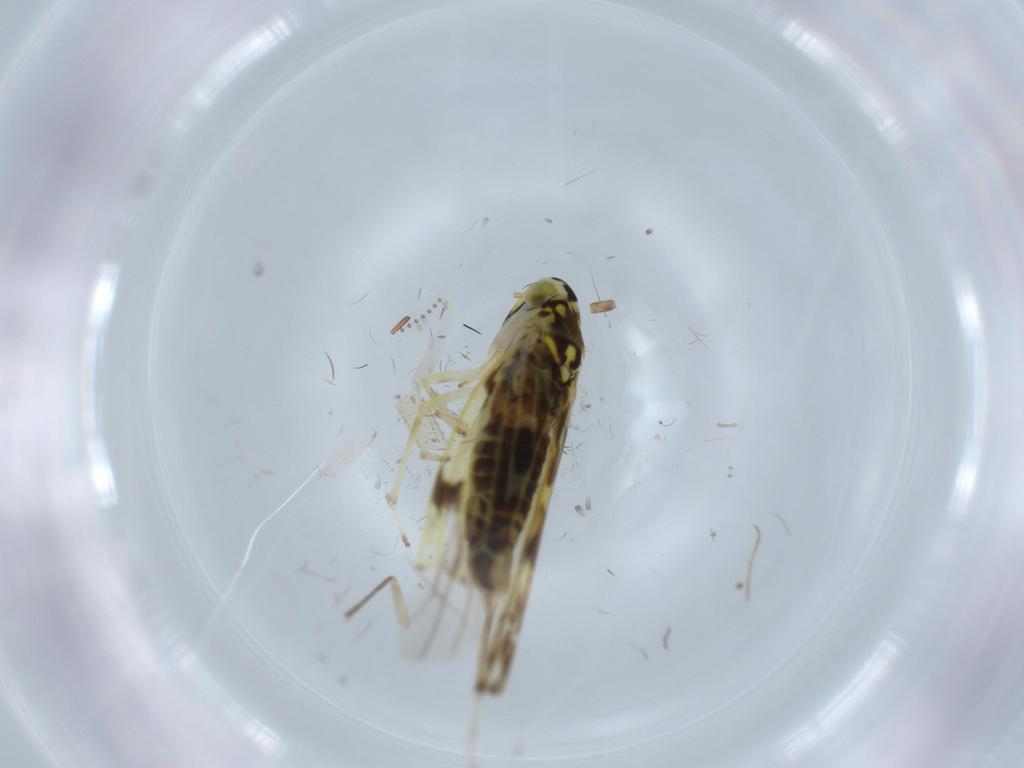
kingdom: Animalia
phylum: Arthropoda
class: Insecta
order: Hemiptera
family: Cicadellidae
